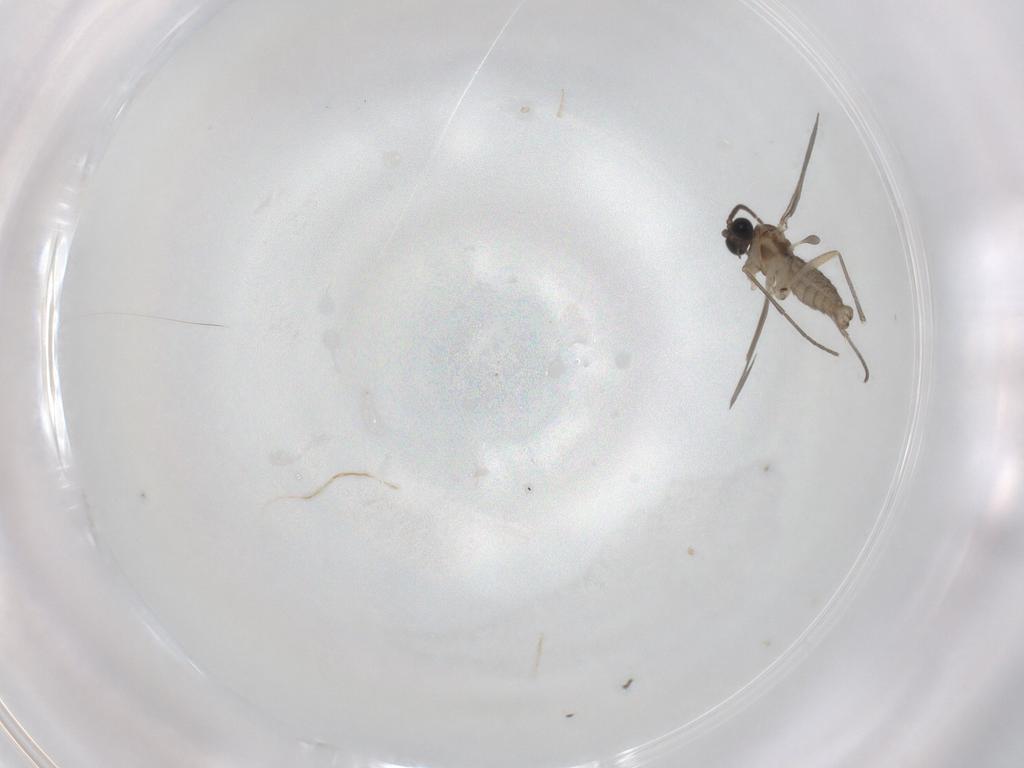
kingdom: Animalia
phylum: Arthropoda
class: Insecta
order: Diptera
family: Sciaridae
